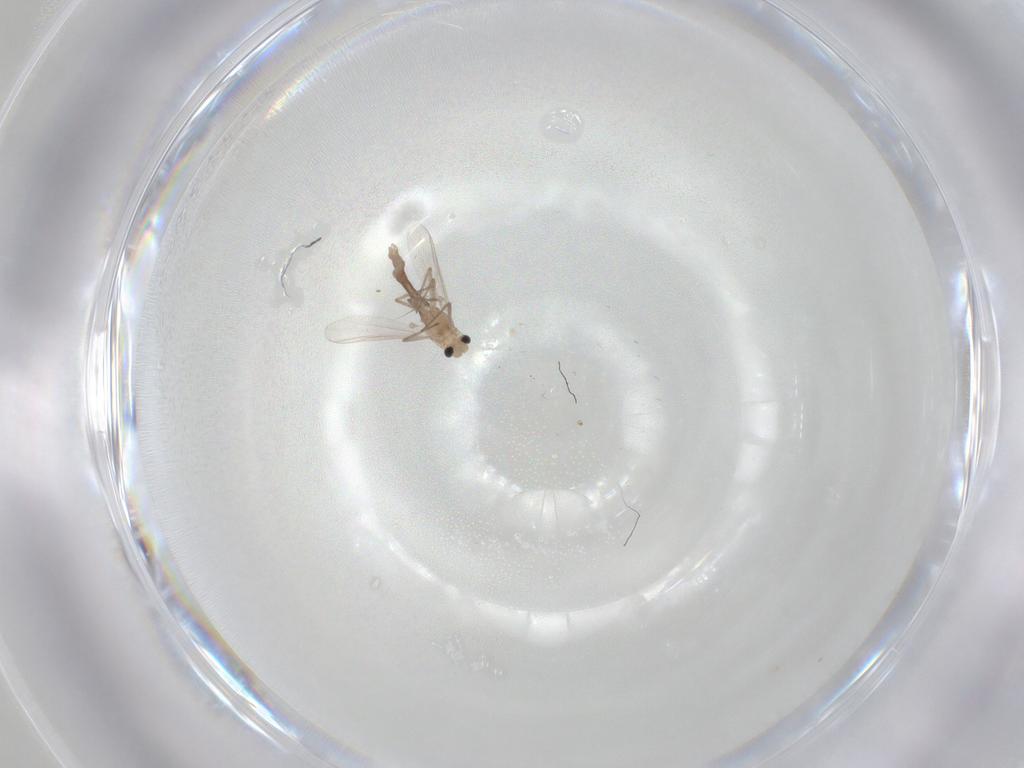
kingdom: Animalia
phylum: Arthropoda
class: Insecta
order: Diptera
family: Chironomidae
